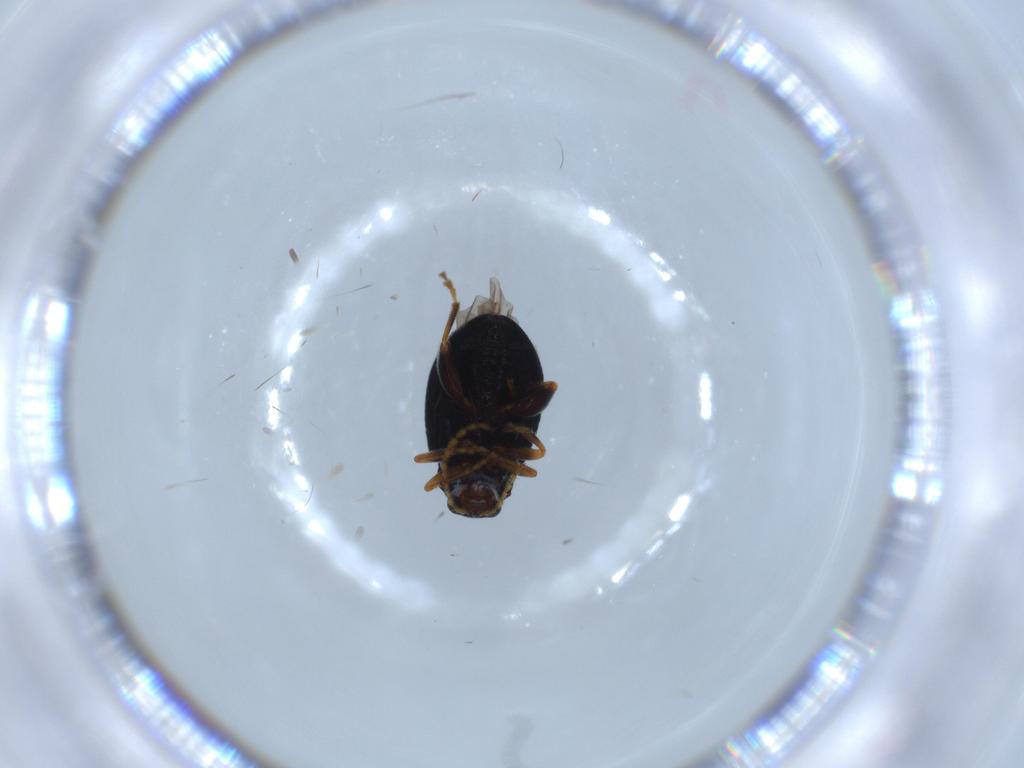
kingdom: Animalia
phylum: Arthropoda
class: Insecta
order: Coleoptera
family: Chrysomelidae
